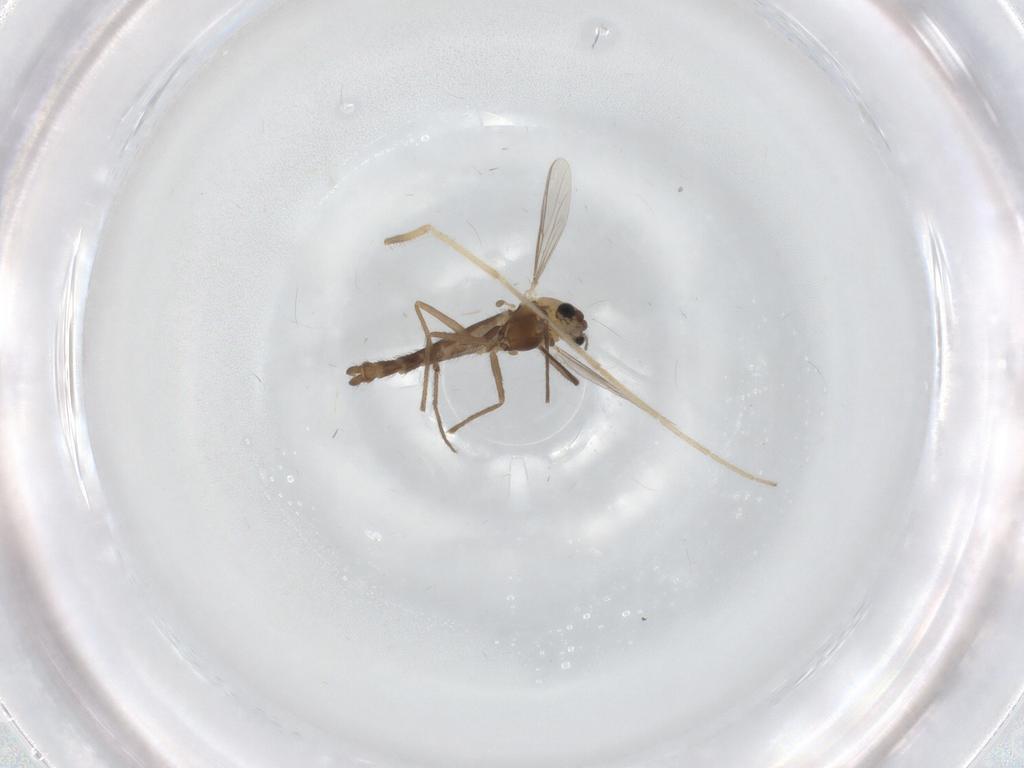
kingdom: Animalia
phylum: Arthropoda
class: Insecta
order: Diptera
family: Chironomidae
